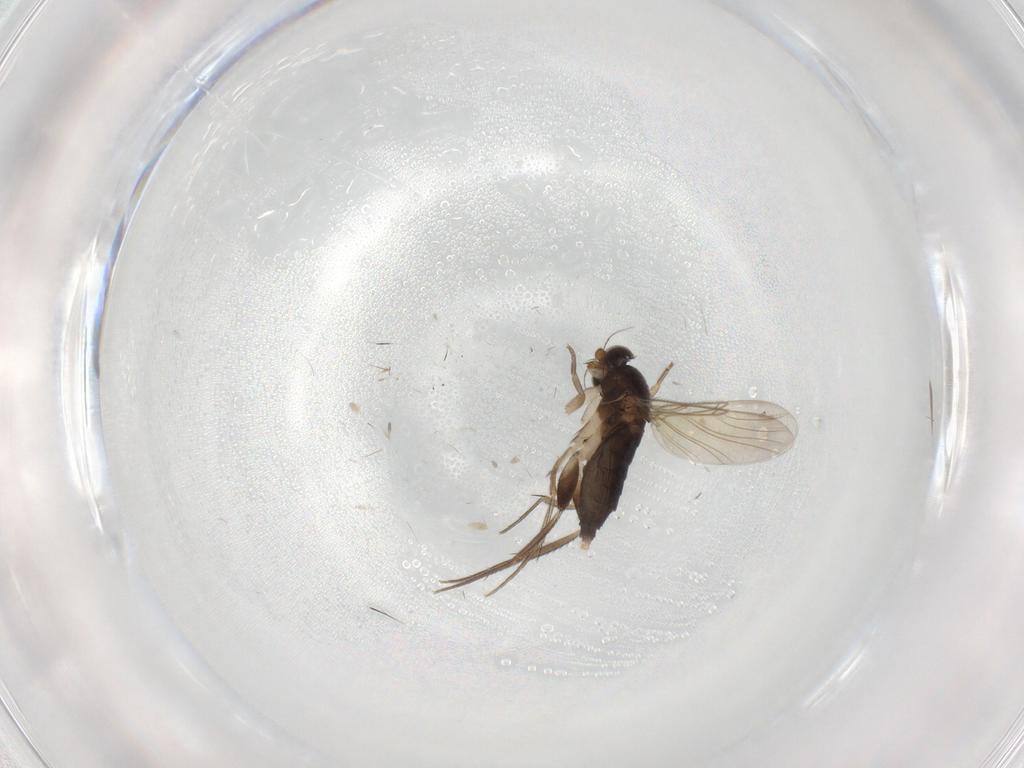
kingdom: Animalia
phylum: Arthropoda
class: Insecta
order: Diptera
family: Phoridae
